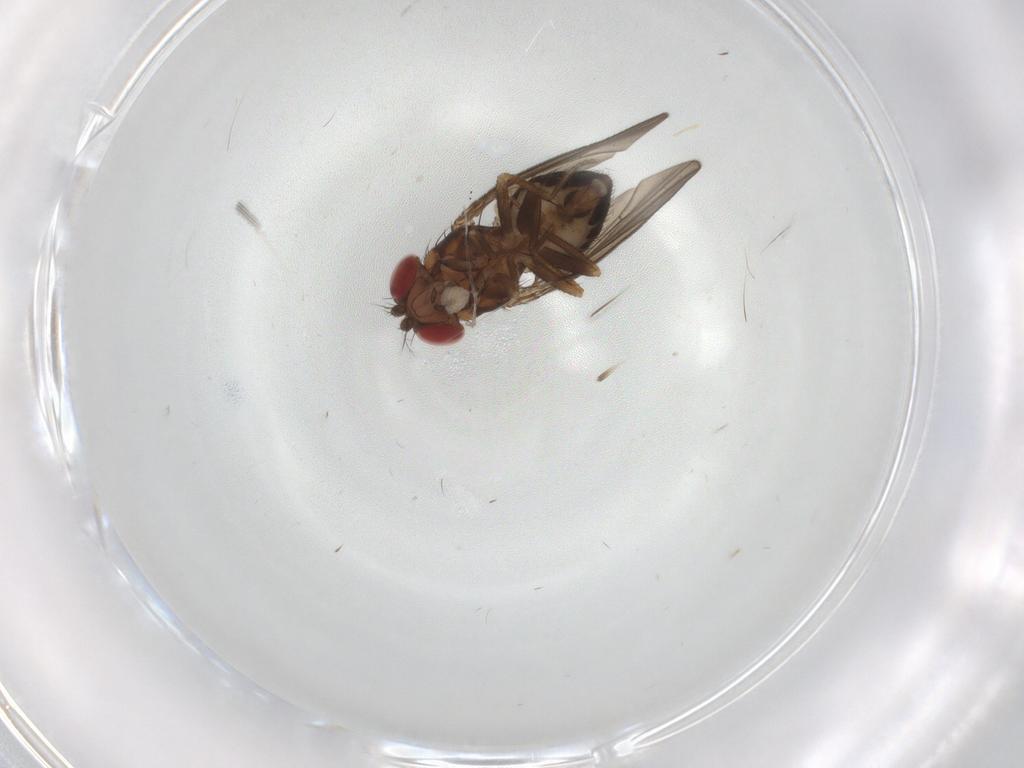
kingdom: Animalia
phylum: Arthropoda
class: Insecta
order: Diptera
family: Drosophilidae
